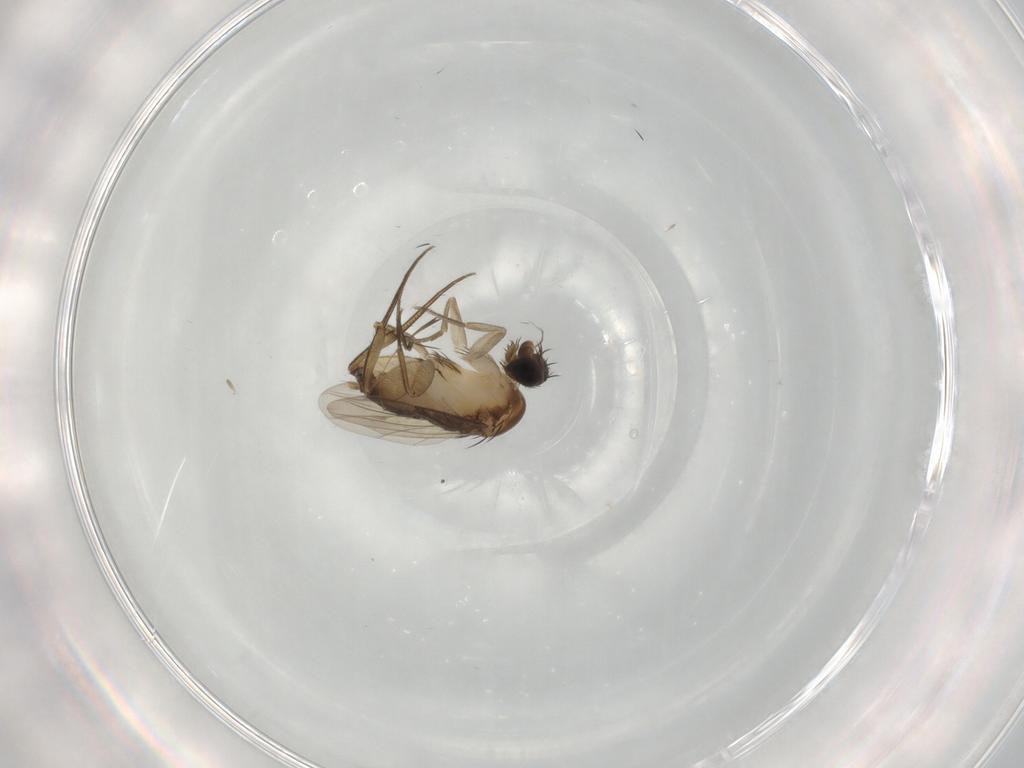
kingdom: Animalia
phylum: Arthropoda
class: Insecta
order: Diptera
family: Phoridae
